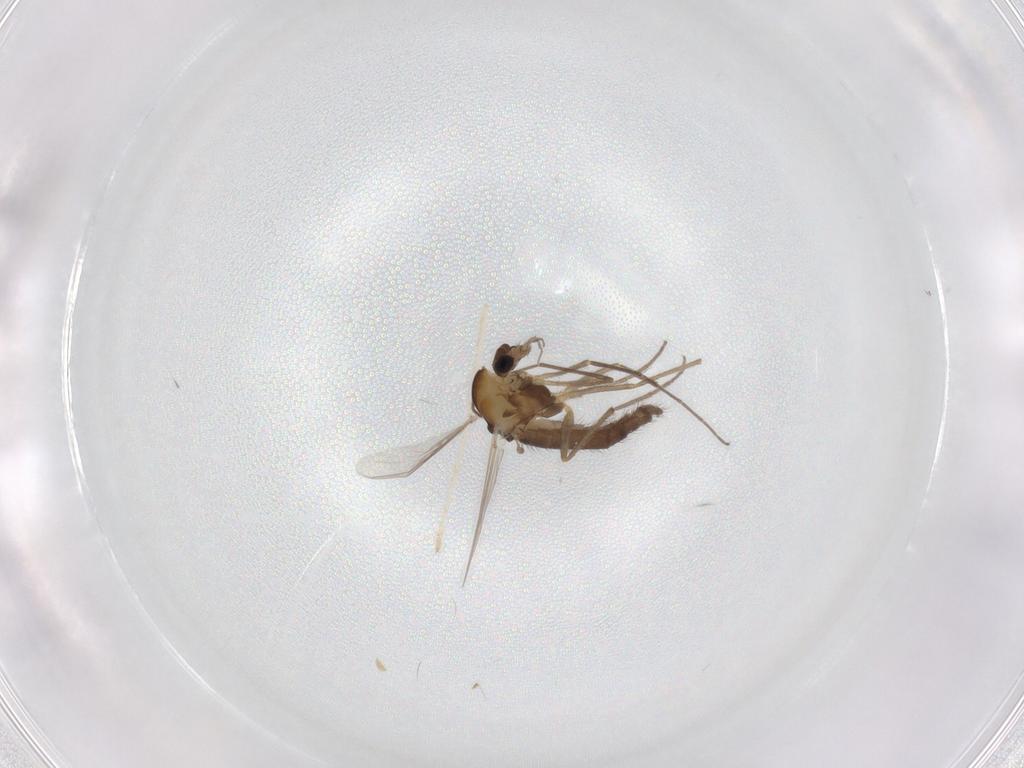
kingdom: Animalia
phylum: Arthropoda
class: Insecta
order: Diptera
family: Chironomidae
